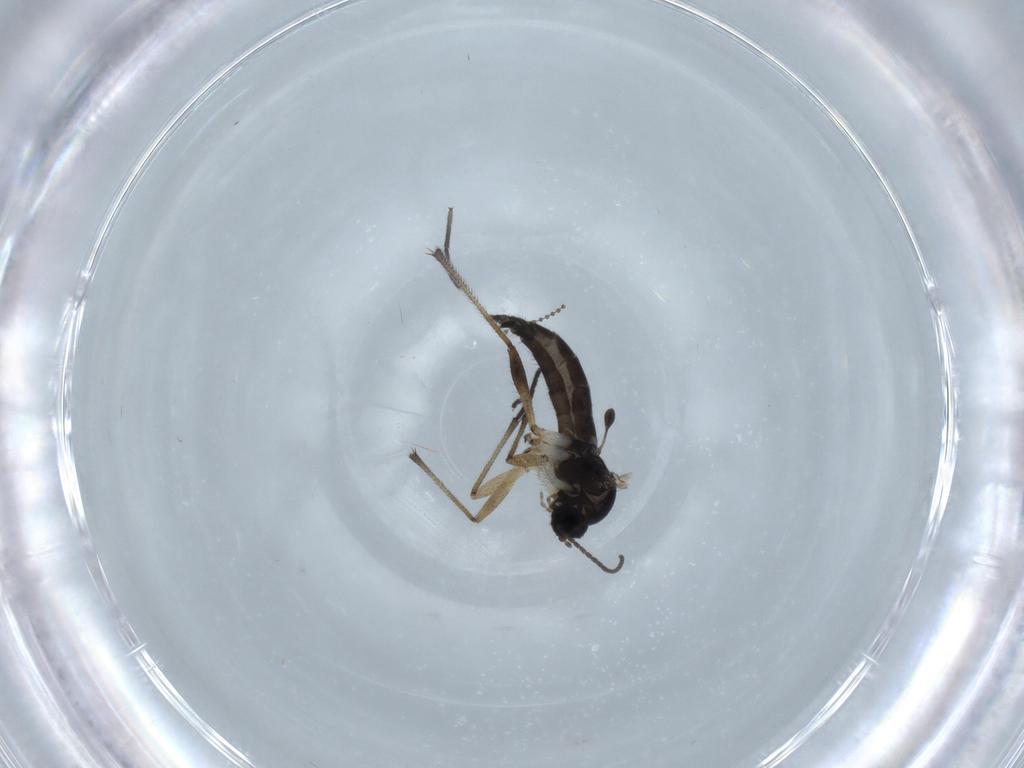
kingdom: Animalia
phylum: Arthropoda
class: Insecta
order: Diptera
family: Sciaridae
